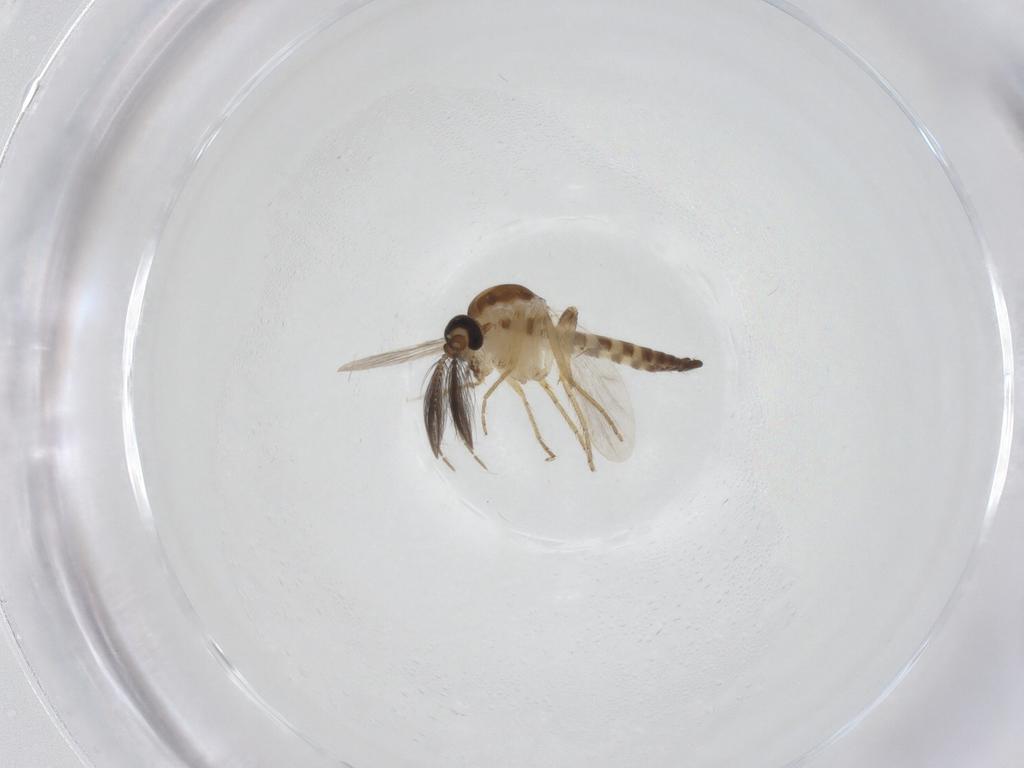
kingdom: Animalia
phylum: Arthropoda
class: Insecta
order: Diptera
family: Ceratopogonidae
